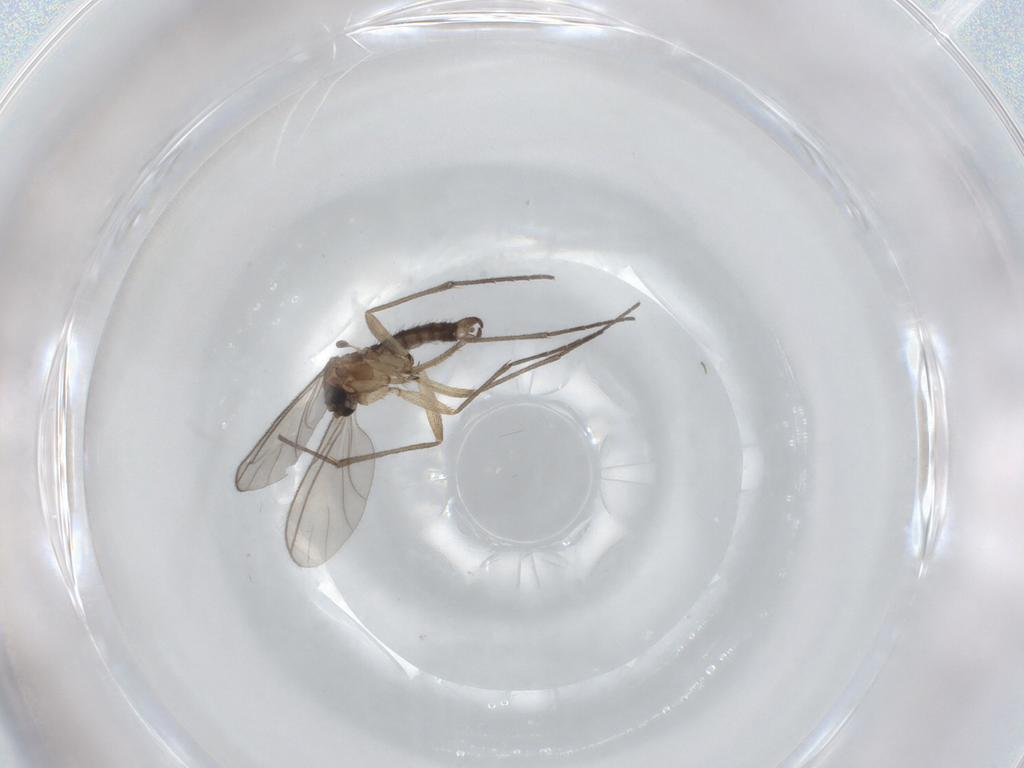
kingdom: Animalia
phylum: Arthropoda
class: Insecta
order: Diptera
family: Sciaridae
